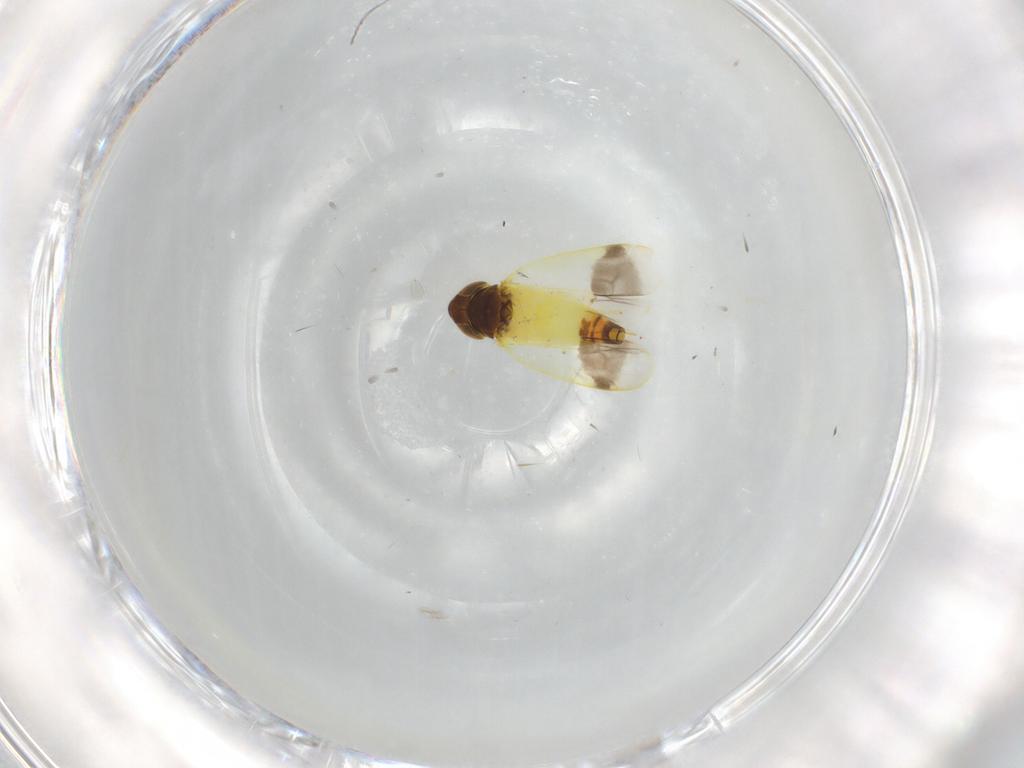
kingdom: Animalia
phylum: Arthropoda
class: Insecta
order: Hemiptera
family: Cicadellidae
